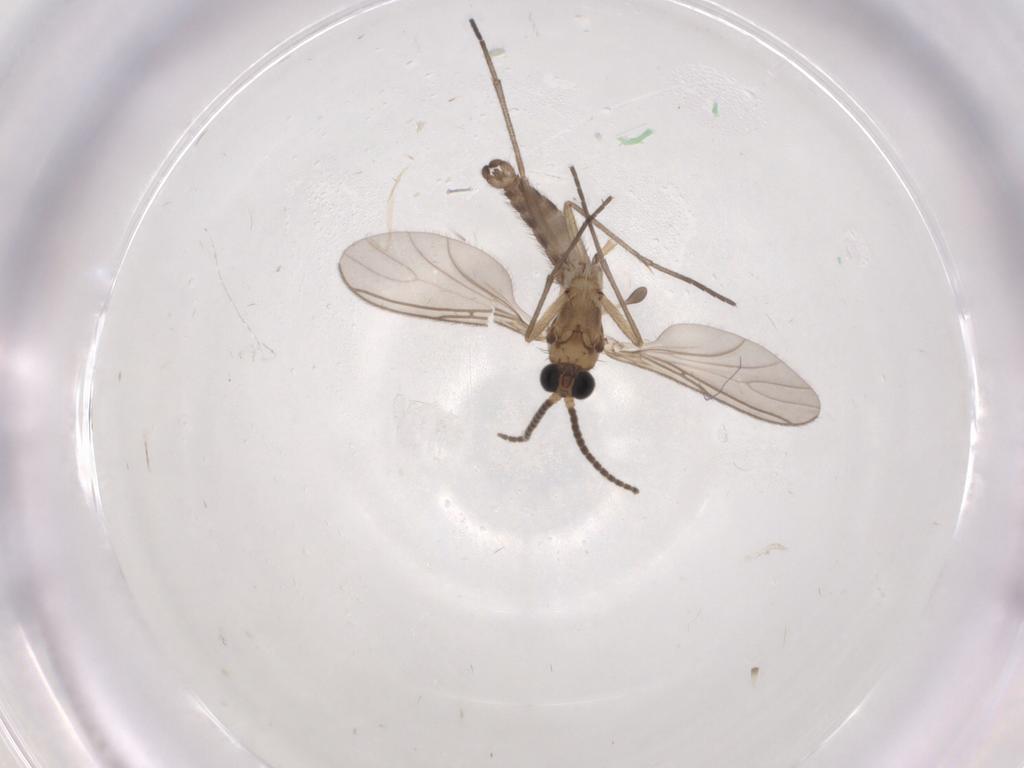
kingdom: Animalia
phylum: Arthropoda
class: Insecta
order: Diptera
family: Sciaridae
